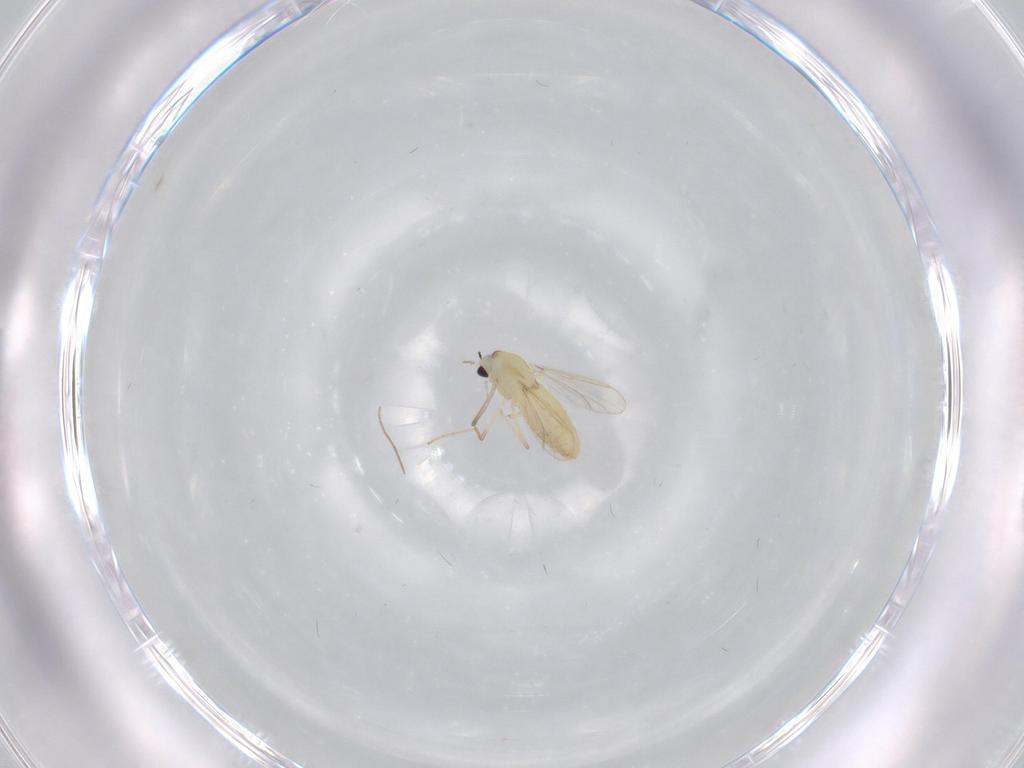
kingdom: Animalia
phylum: Arthropoda
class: Insecta
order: Diptera
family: Chironomidae
